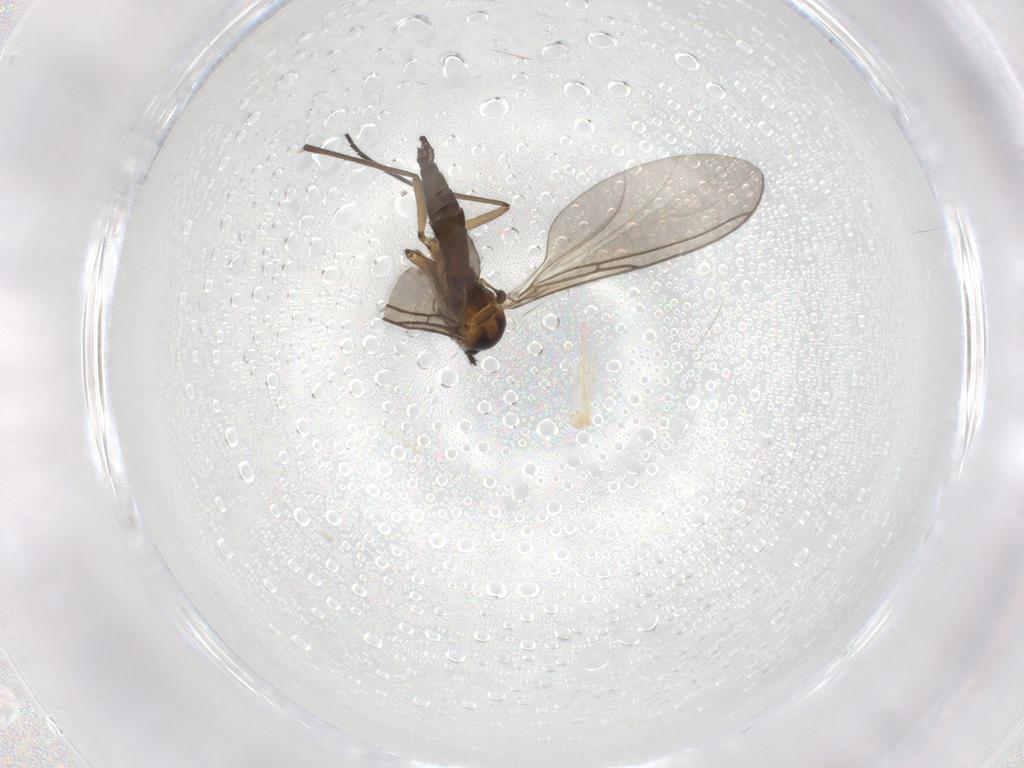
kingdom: Animalia
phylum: Arthropoda
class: Insecta
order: Diptera
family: Sciaridae
